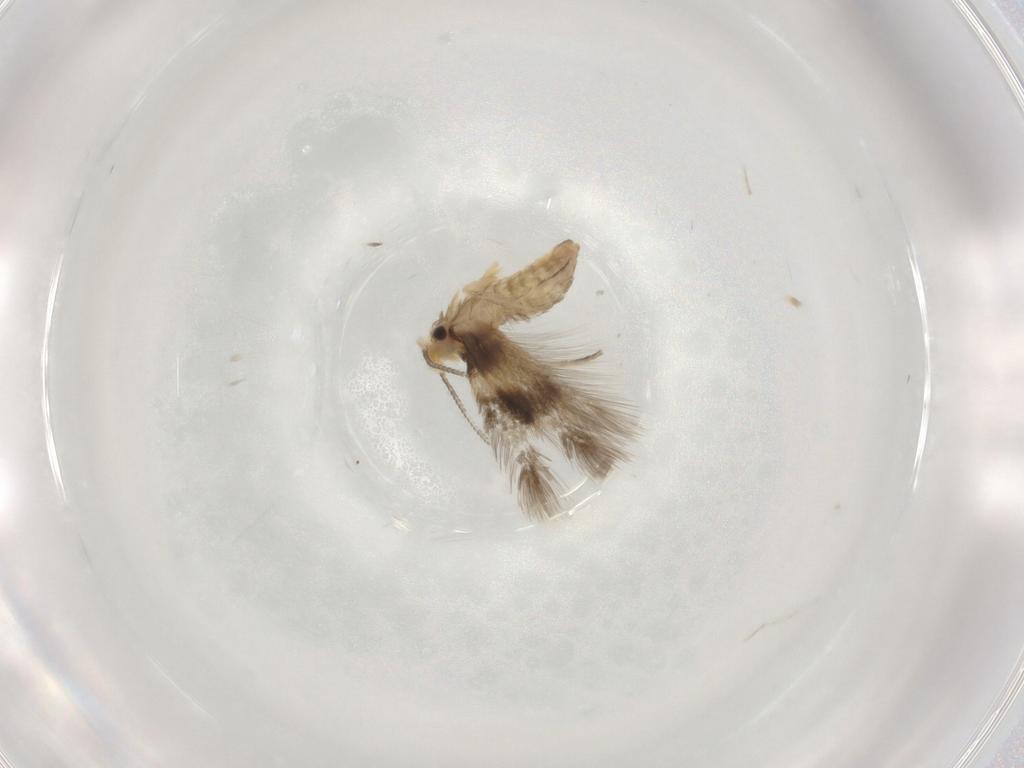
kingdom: Animalia
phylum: Arthropoda
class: Insecta
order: Lepidoptera
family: Nepticulidae
